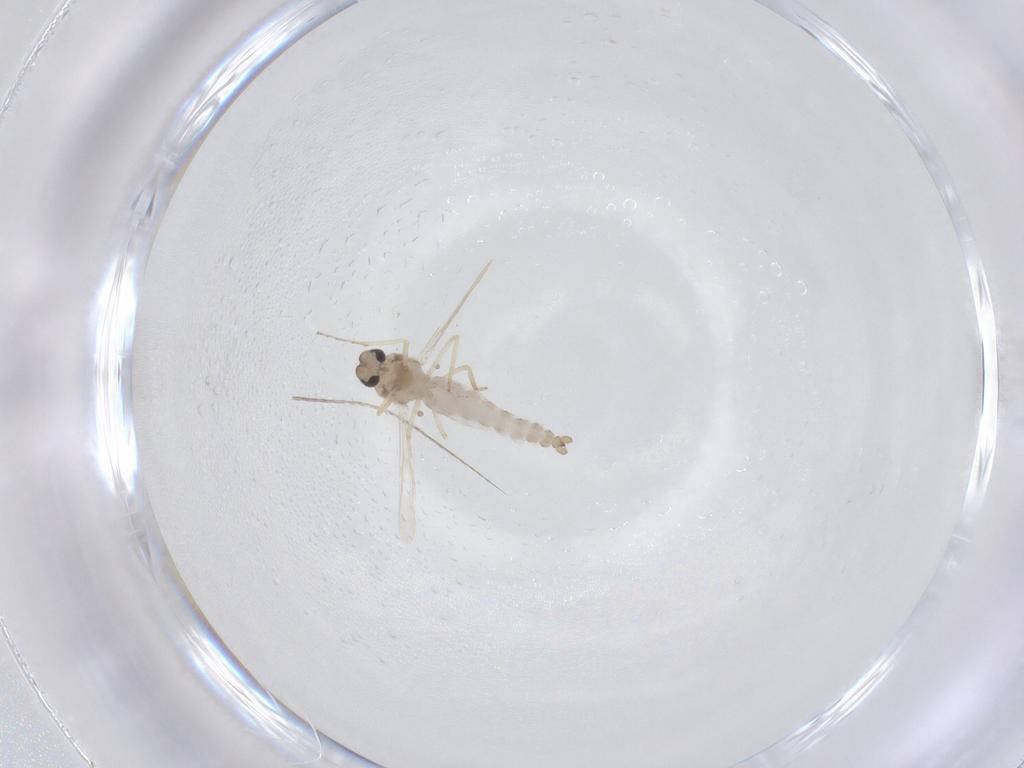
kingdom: Animalia
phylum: Arthropoda
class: Insecta
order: Diptera
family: Ceratopogonidae
